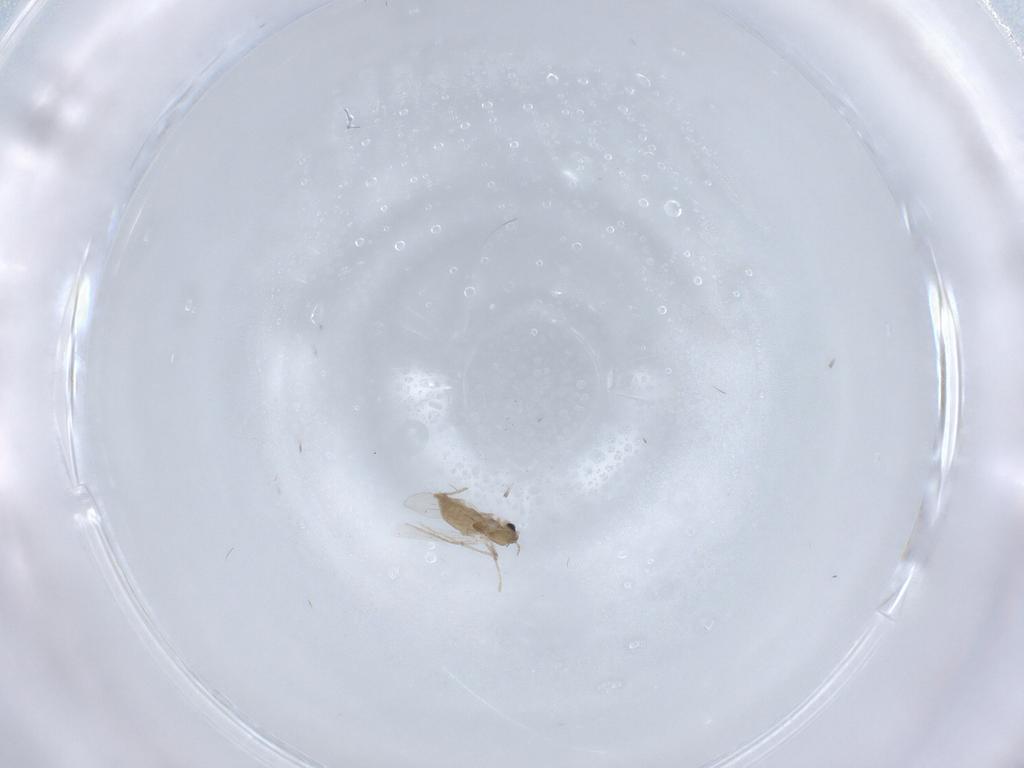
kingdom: Animalia
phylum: Arthropoda
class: Insecta
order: Diptera
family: Chironomidae
